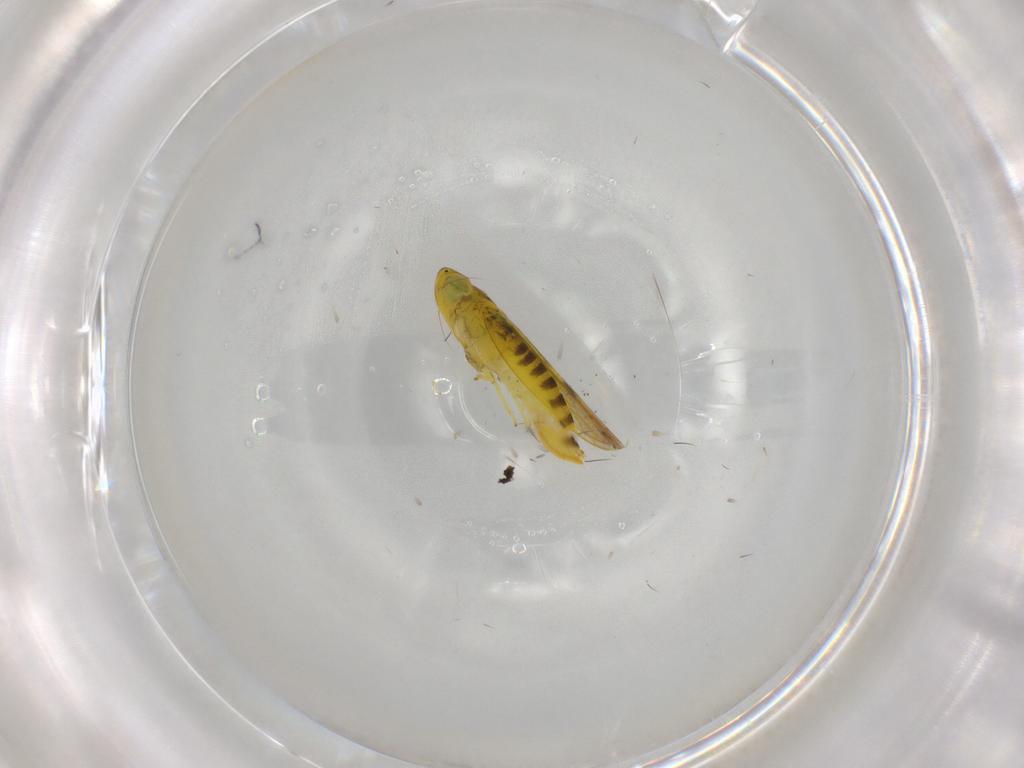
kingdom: Animalia
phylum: Arthropoda
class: Insecta
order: Hemiptera
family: Cicadellidae
